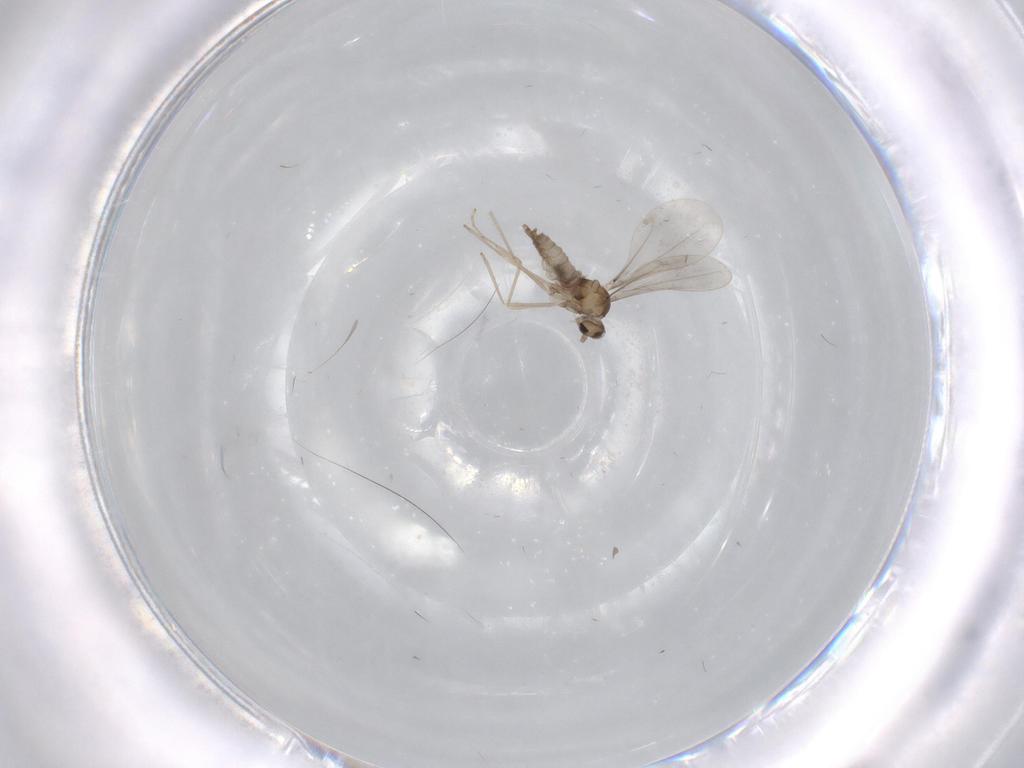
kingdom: Animalia
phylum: Arthropoda
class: Insecta
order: Diptera
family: Cecidomyiidae
